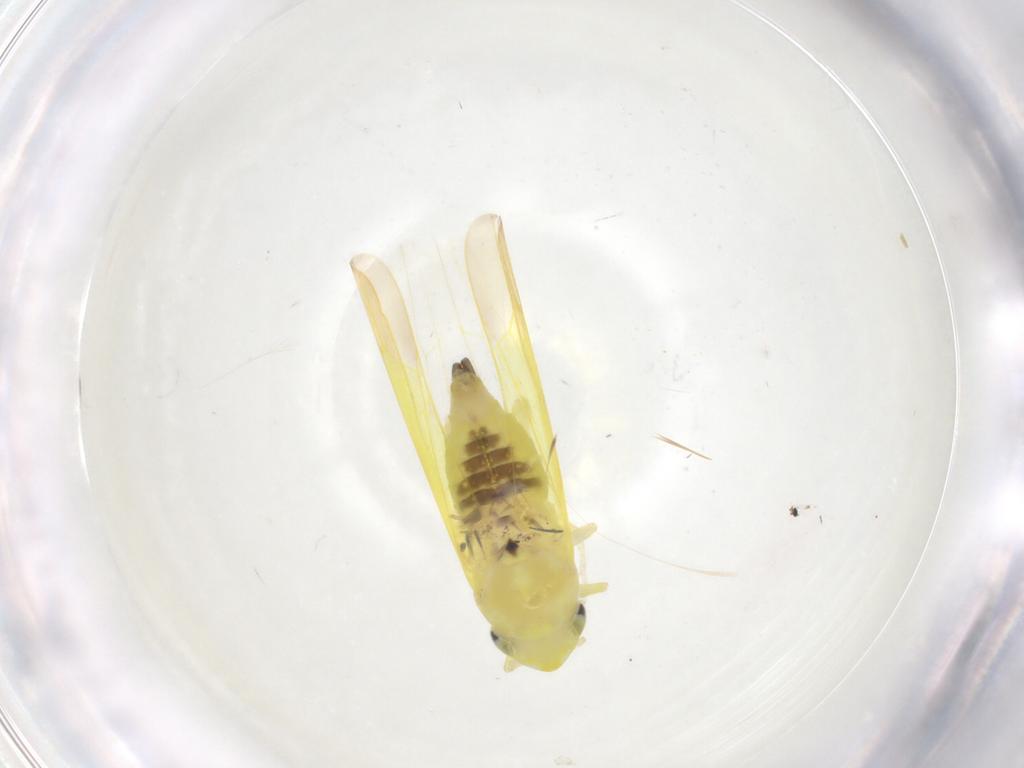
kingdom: Animalia
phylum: Arthropoda
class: Insecta
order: Hemiptera
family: Cicadellidae
